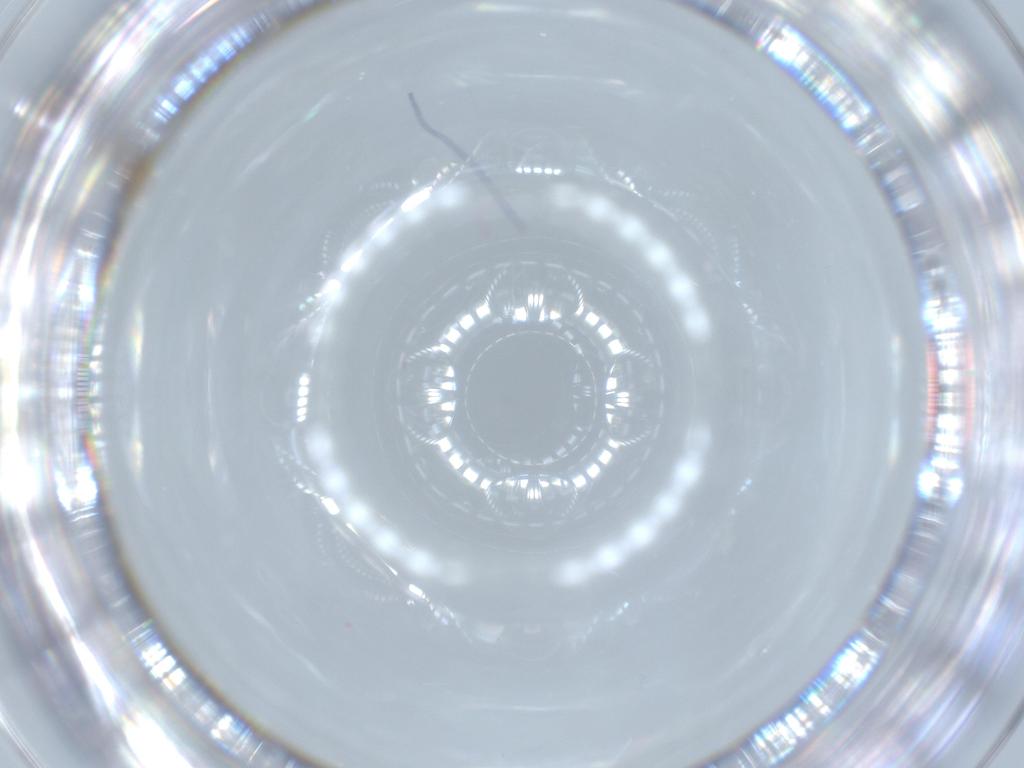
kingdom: Animalia
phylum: Arthropoda
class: Insecta
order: Diptera
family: Chironomidae
